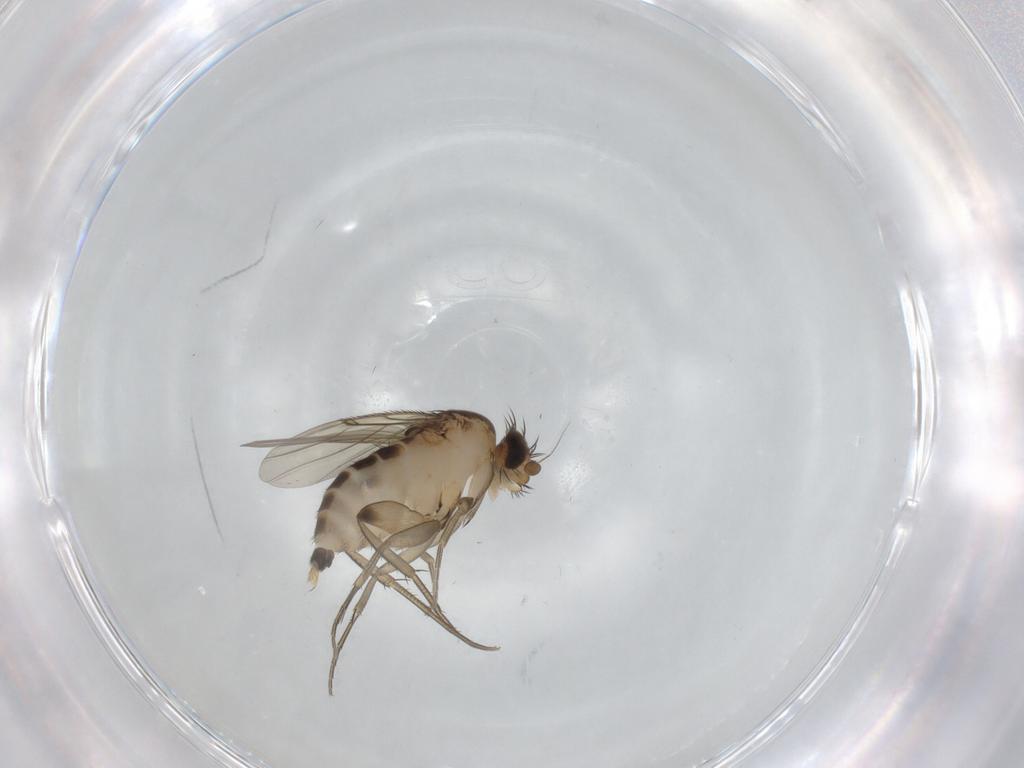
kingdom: Animalia
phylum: Arthropoda
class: Insecta
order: Diptera
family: Phoridae
